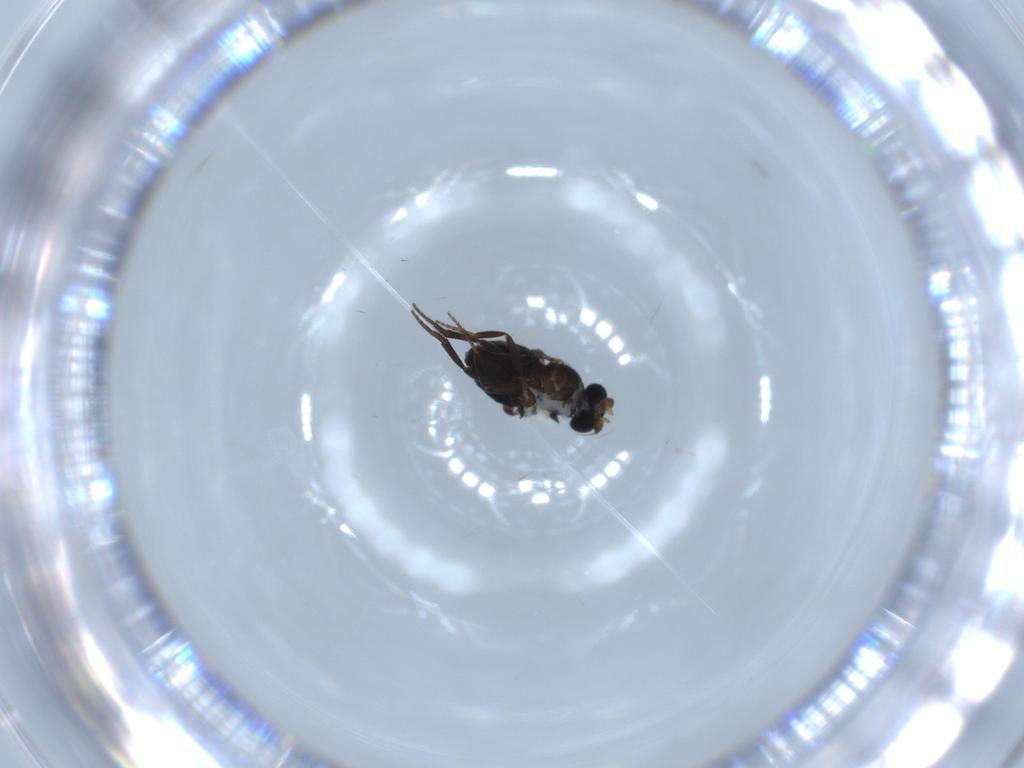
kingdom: Animalia
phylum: Arthropoda
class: Insecta
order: Diptera
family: Phoridae
